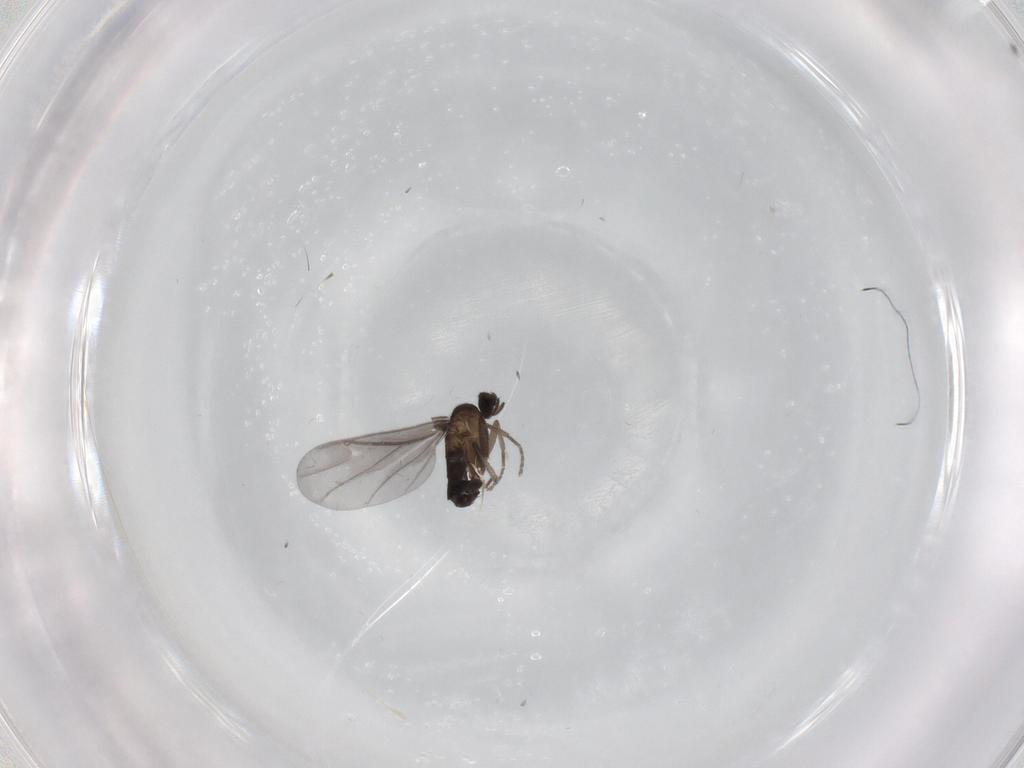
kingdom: Animalia
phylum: Arthropoda
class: Insecta
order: Diptera
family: Phoridae
